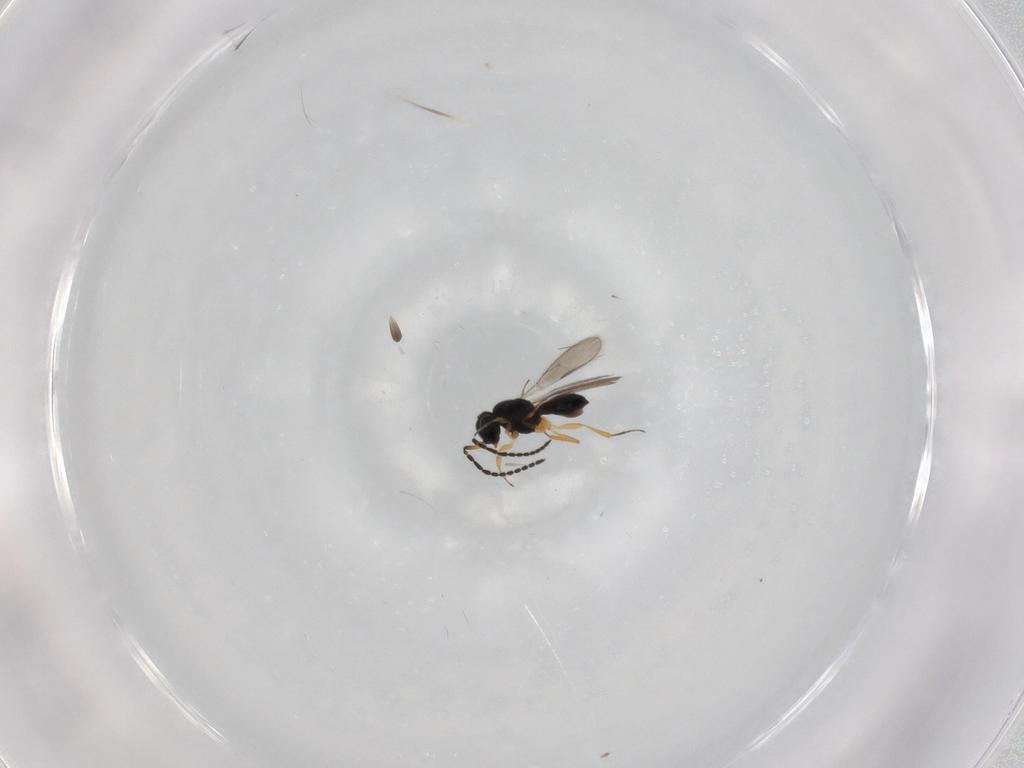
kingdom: Animalia
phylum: Arthropoda
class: Insecta
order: Hymenoptera
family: Scelionidae
